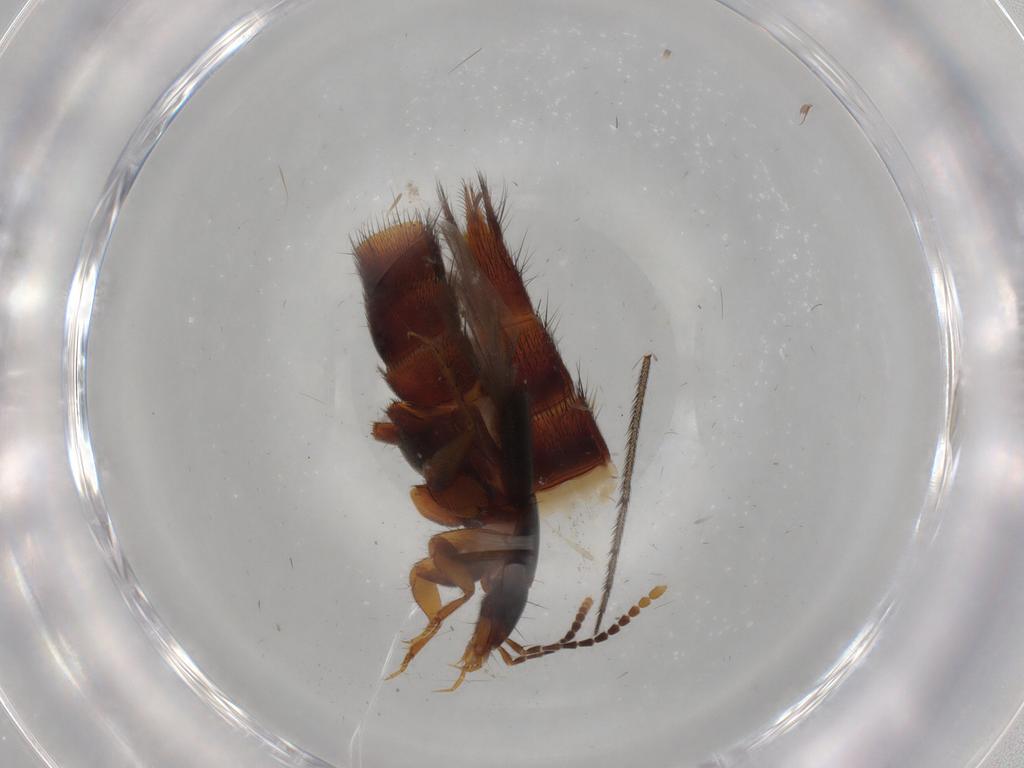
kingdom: Animalia
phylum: Arthropoda
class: Insecta
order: Coleoptera
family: Staphylinidae
